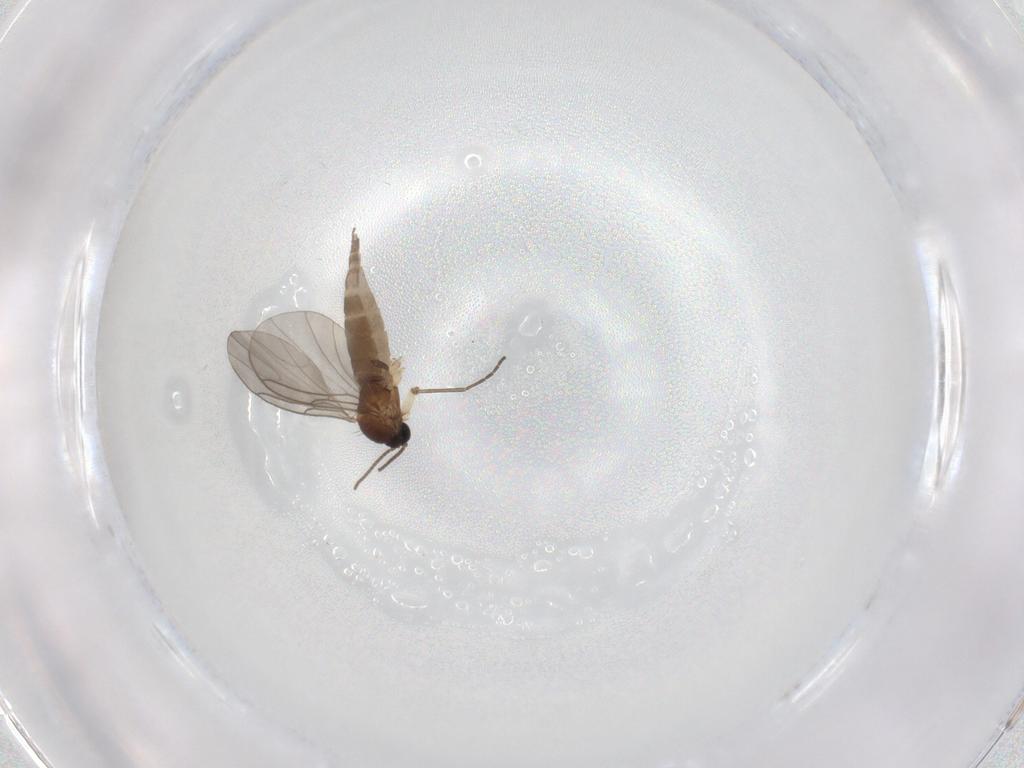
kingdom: Animalia
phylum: Arthropoda
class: Insecta
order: Diptera
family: Sciaridae
